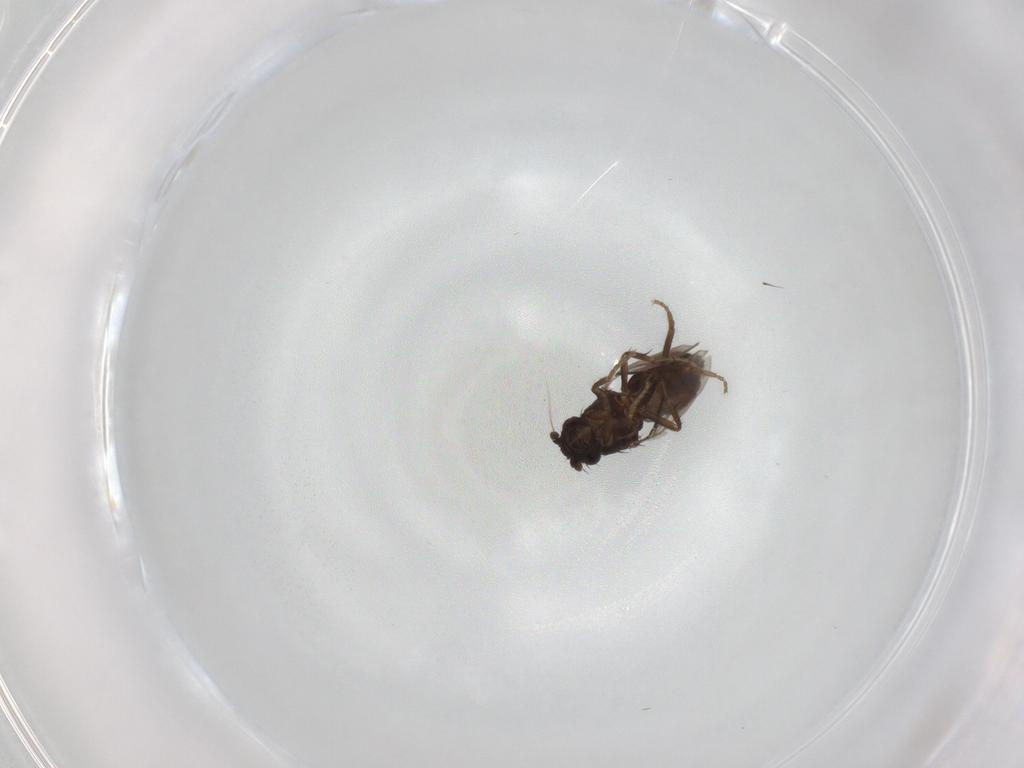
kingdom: Animalia
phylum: Arthropoda
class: Insecta
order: Diptera
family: Sphaeroceridae
